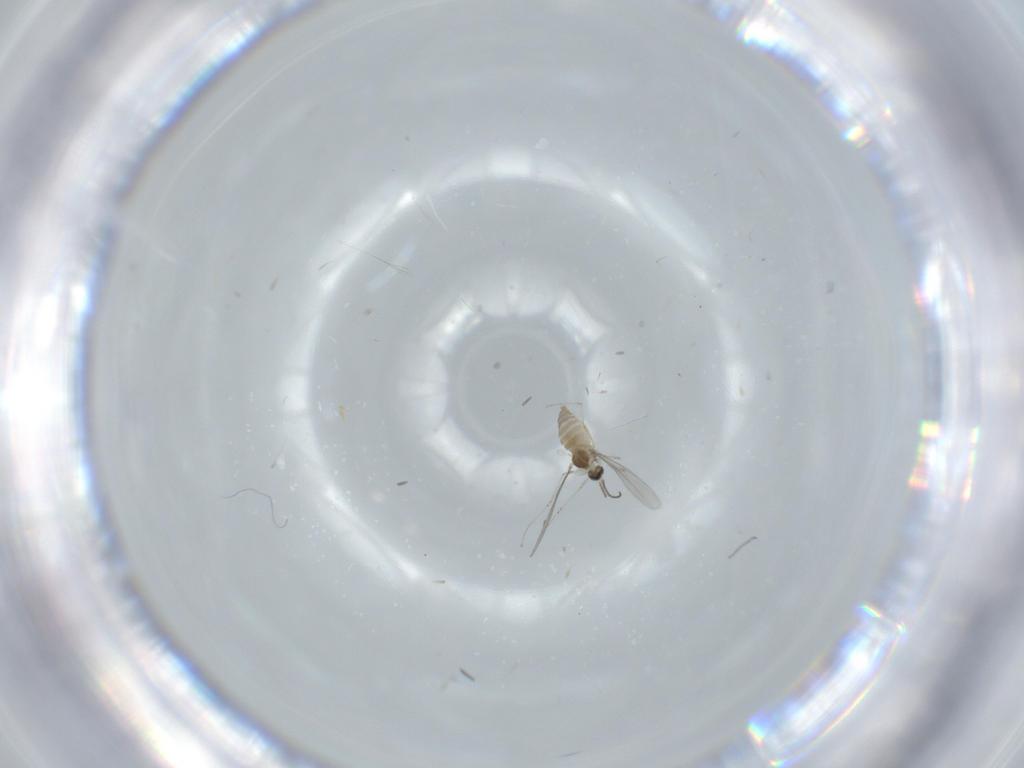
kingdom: Animalia
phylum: Arthropoda
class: Insecta
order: Diptera
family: Cecidomyiidae
